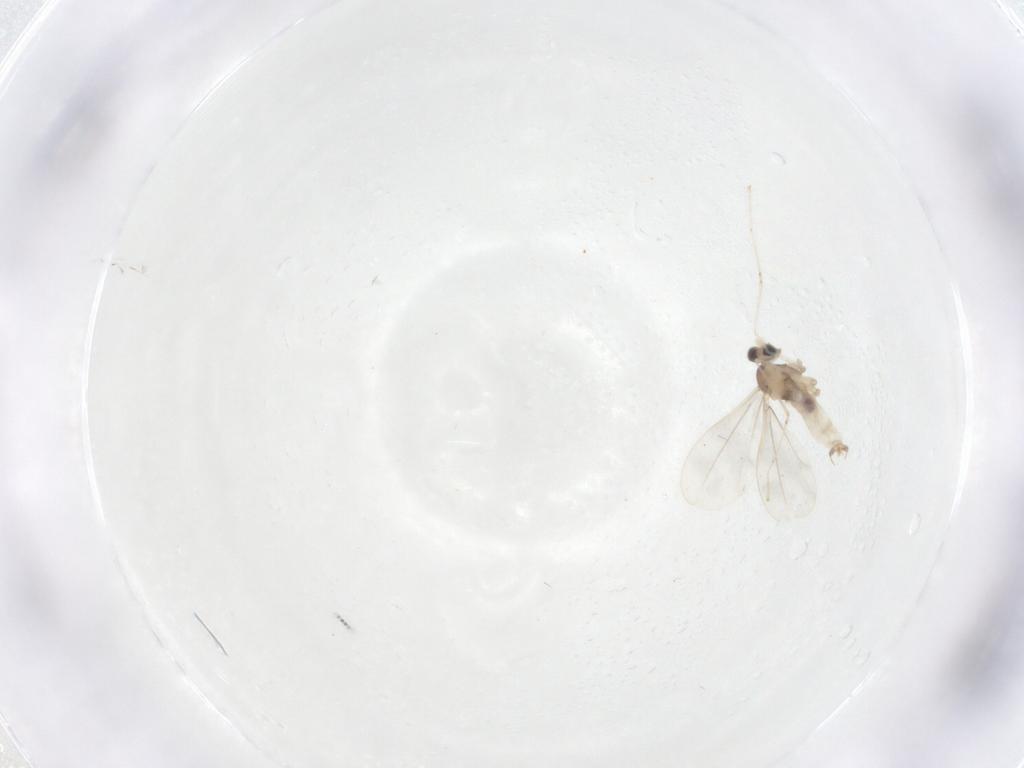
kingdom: Animalia
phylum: Arthropoda
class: Insecta
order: Diptera
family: Cecidomyiidae
